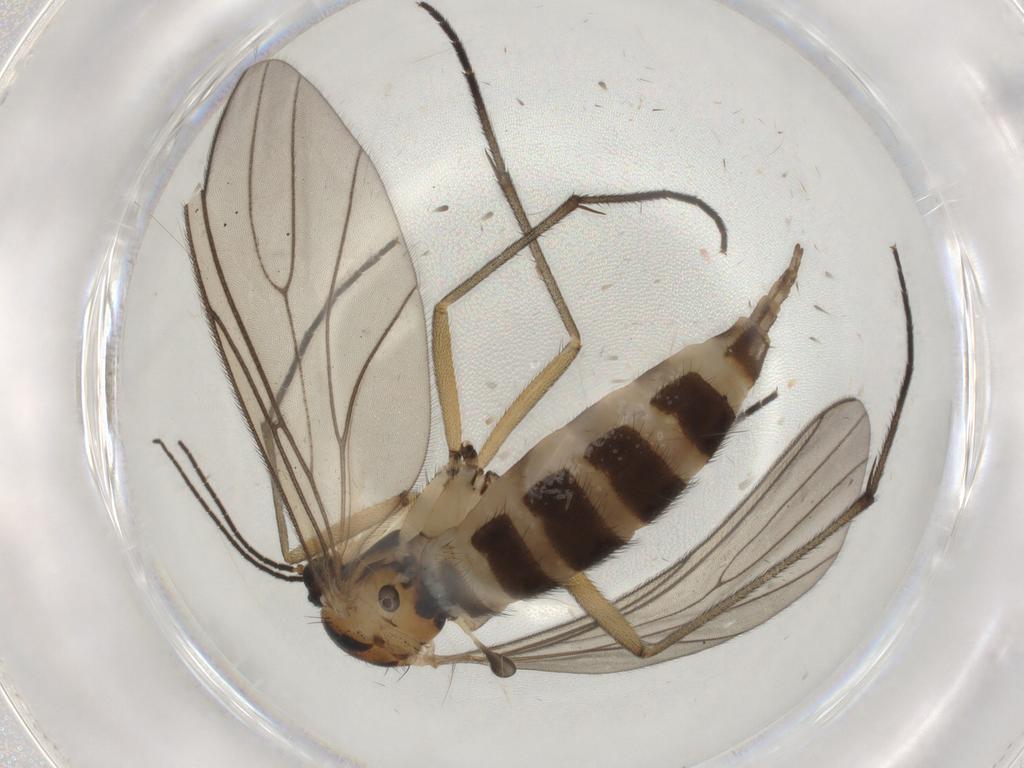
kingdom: Animalia
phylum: Arthropoda
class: Insecta
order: Diptera
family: Sciaridae
